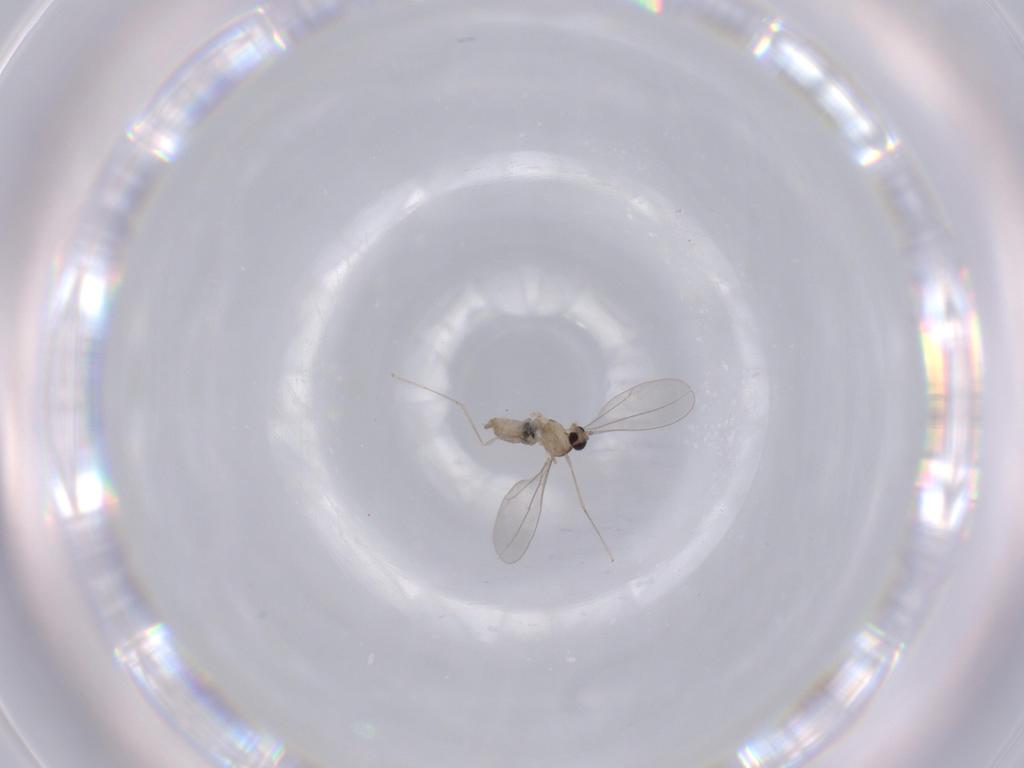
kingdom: Animalia
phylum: Arthropoda
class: Insecta
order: Diptera
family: Cecidomyiidae
